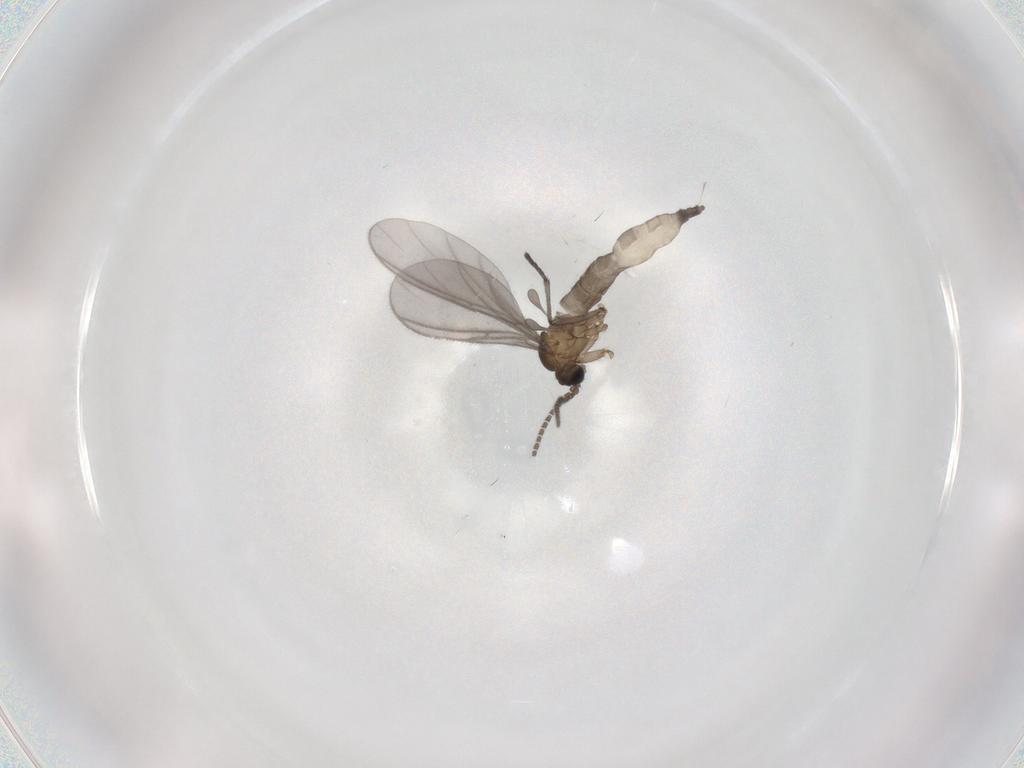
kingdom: Animalia
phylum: Arthropoda
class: Insecta
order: Diptera
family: Sciaridae
